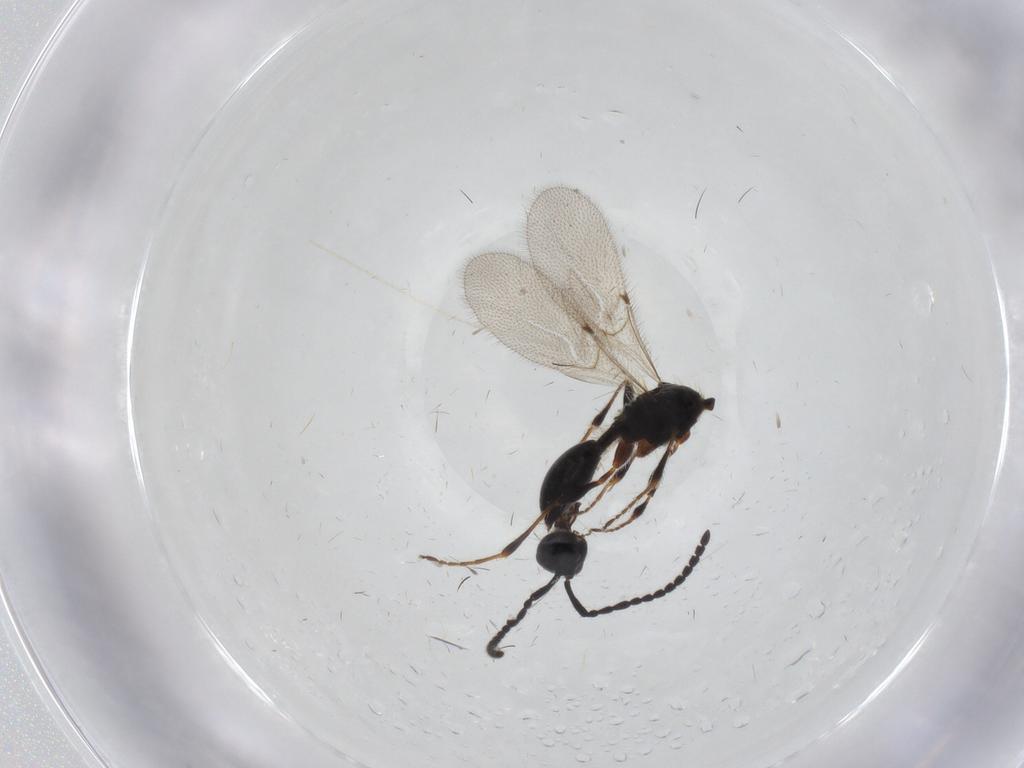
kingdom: Animalia
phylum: Arthropoda
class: Insecta
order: Hymenoptera
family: Diapriidae
